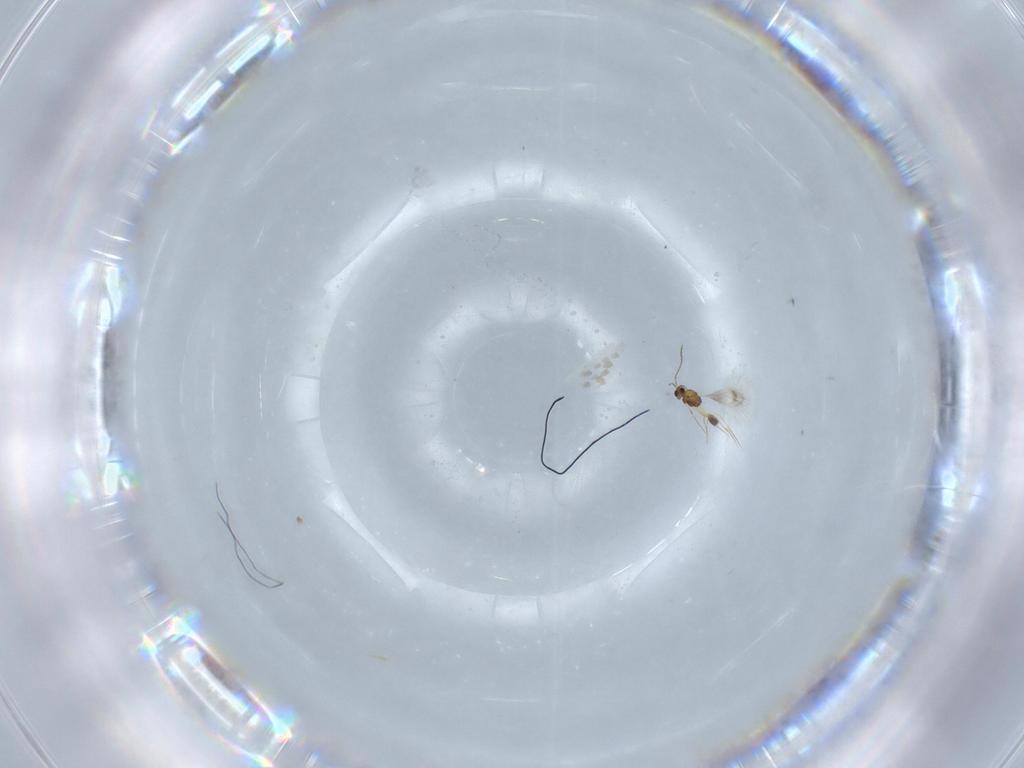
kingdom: Animalia
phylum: Arthropoda
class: Insecta
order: Hymenoptera
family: Mymarommatidae
